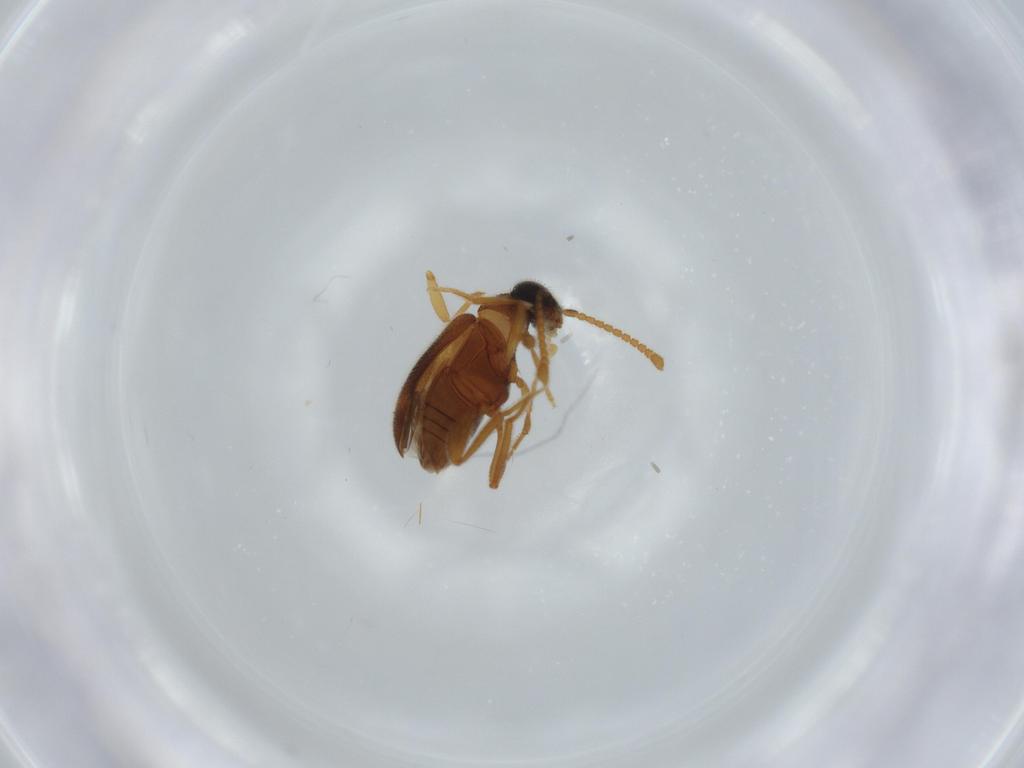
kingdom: Animalia
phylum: Arthropoda
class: Insecta
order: Coleoptera
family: Aderidae
